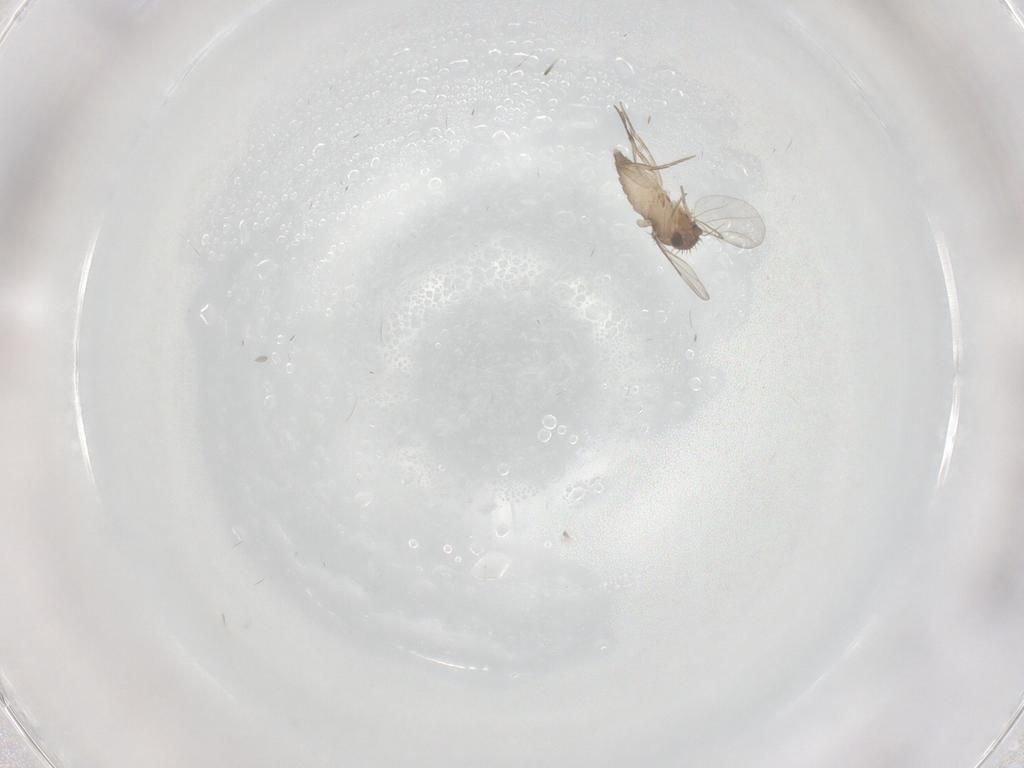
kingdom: Animalia
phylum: Arthropoda
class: Insecta
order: Diptera
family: Phoridae
